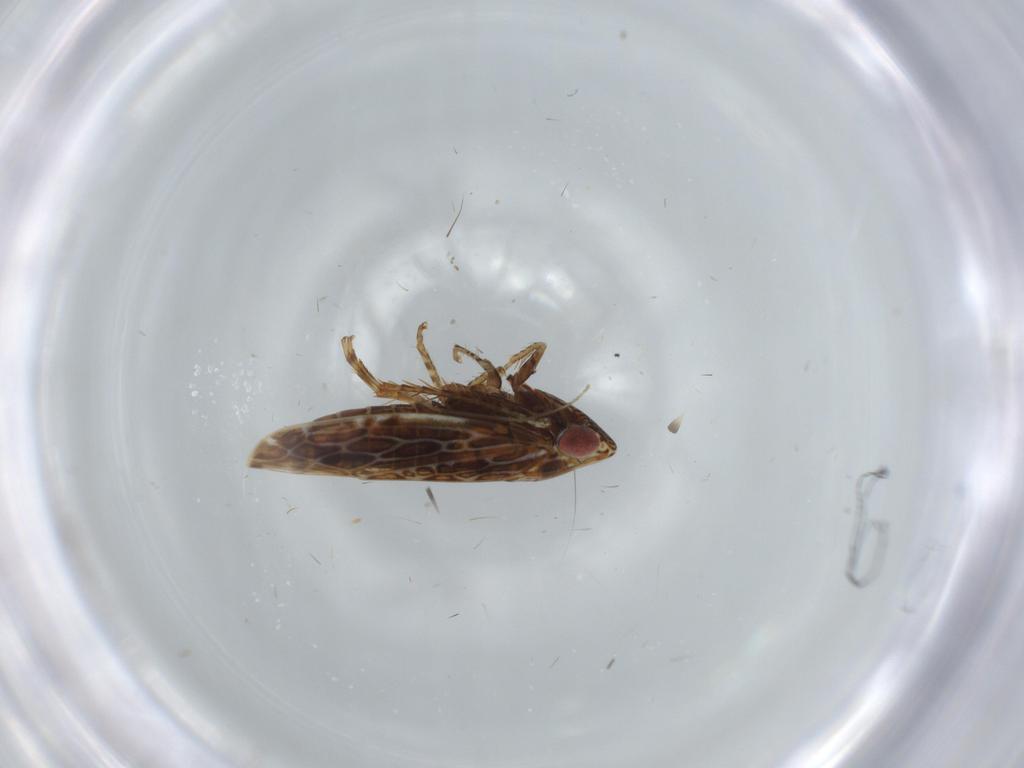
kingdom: Animalia
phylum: Arthropoda
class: Insecta
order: Hemiptera
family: Cicadellidae
